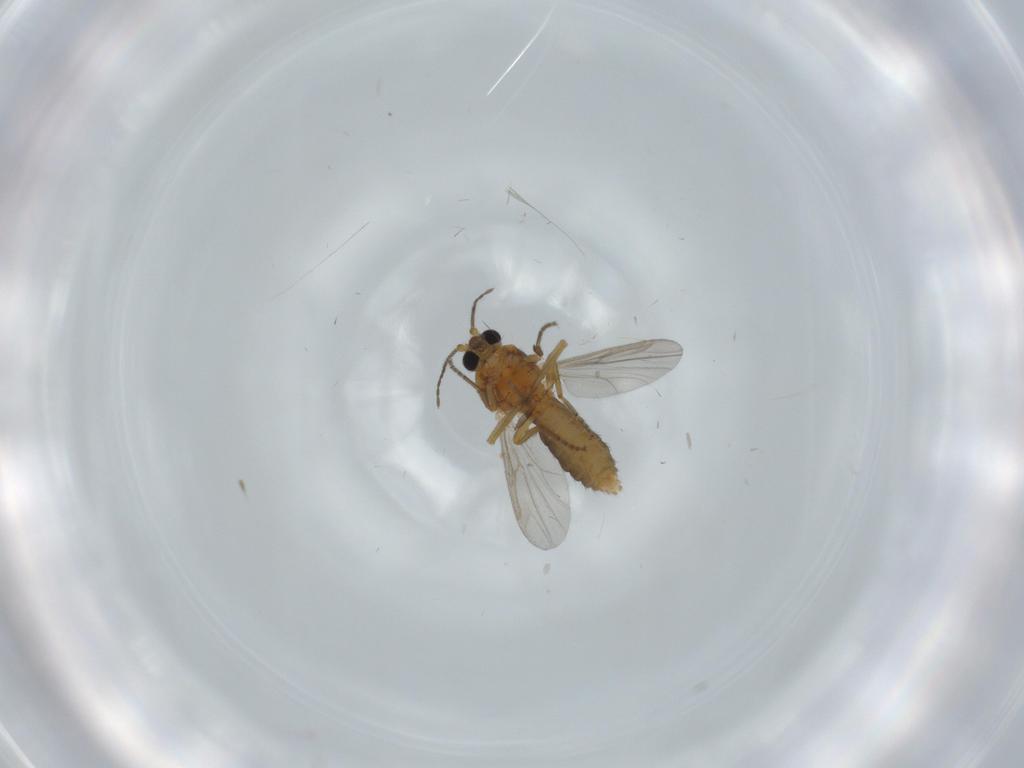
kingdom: Animalia
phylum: Arthropoda
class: Insecta
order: Diptera
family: Ceratopogonidae
